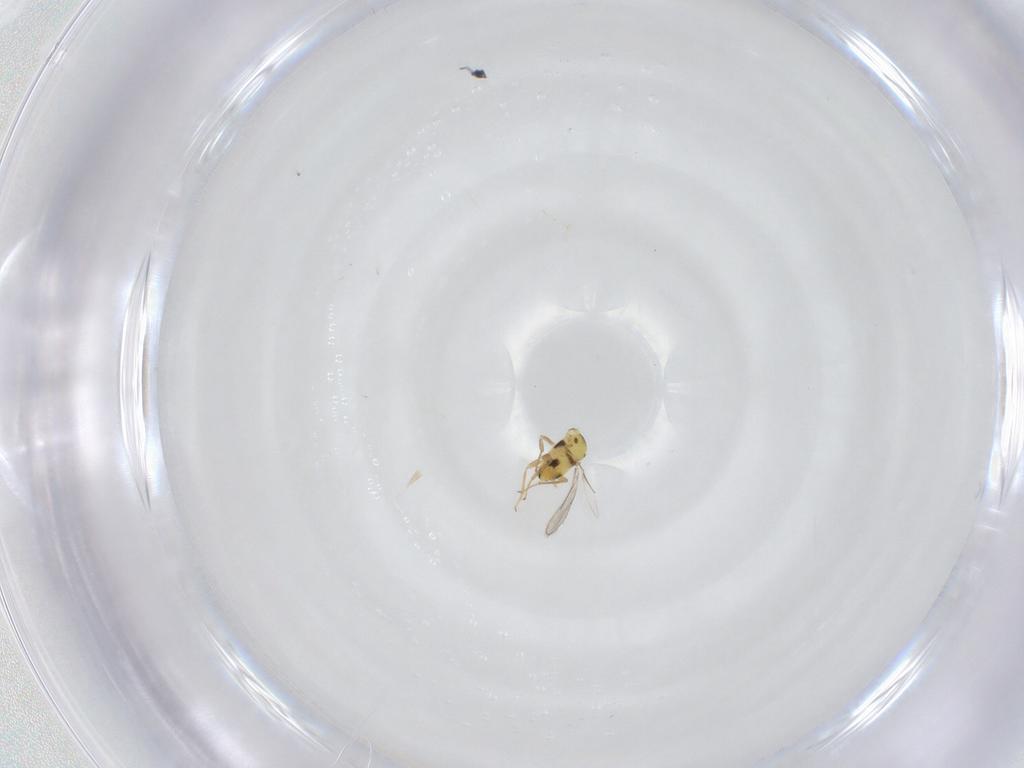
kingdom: Animalia
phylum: Arthropoda
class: Insecta
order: Hymenoptera
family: Aphelinidae
